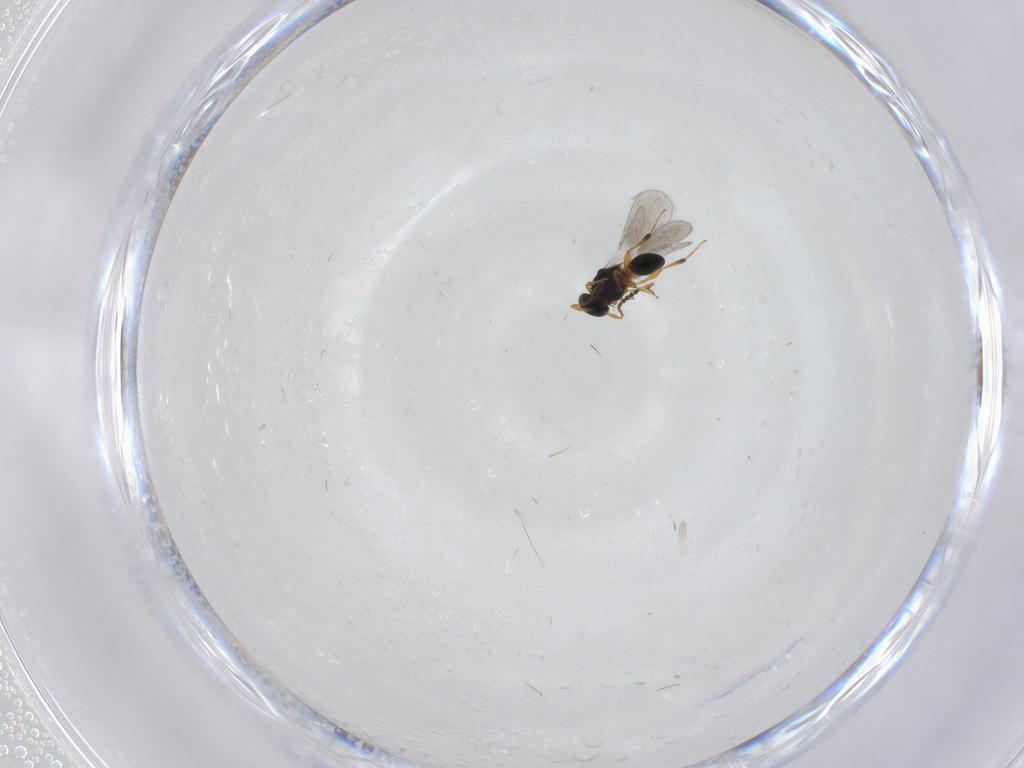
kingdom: Animalia
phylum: Arthropoda
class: Insecta
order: Hymenoptera
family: Platygastridae
